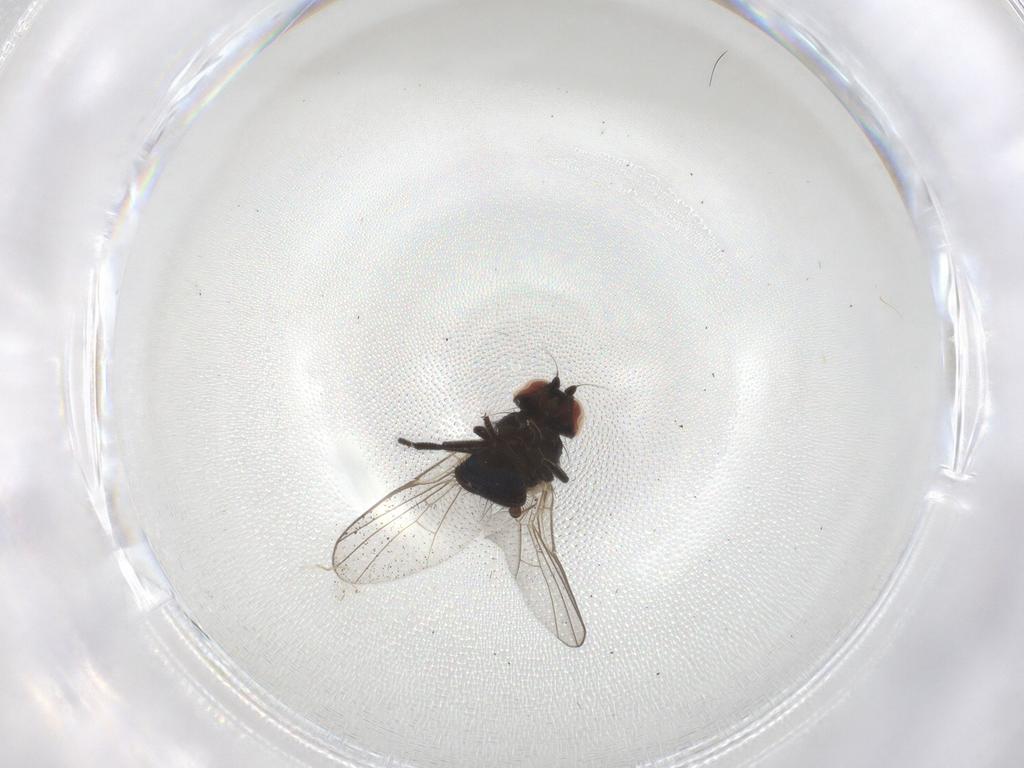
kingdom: Animalia
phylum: Arthropoda
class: Insecta
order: Diptera
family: Agromyzidae
